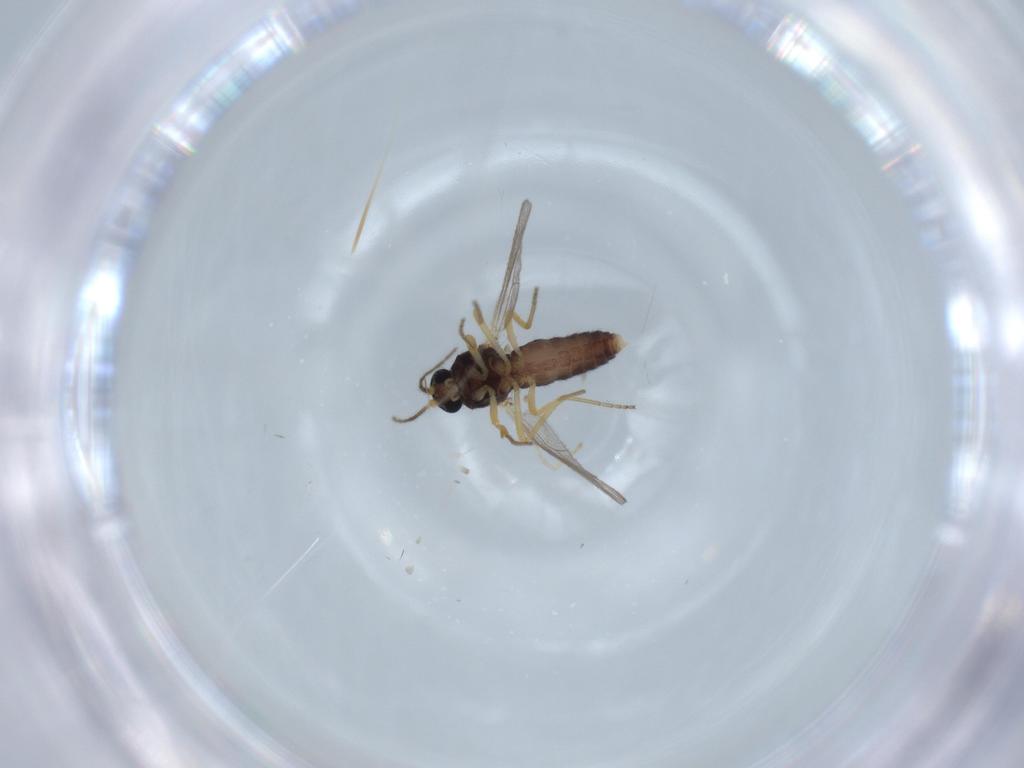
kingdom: Animalia
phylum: Arthropoda
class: Insecta
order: Diptera
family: Ceratopogonidae
